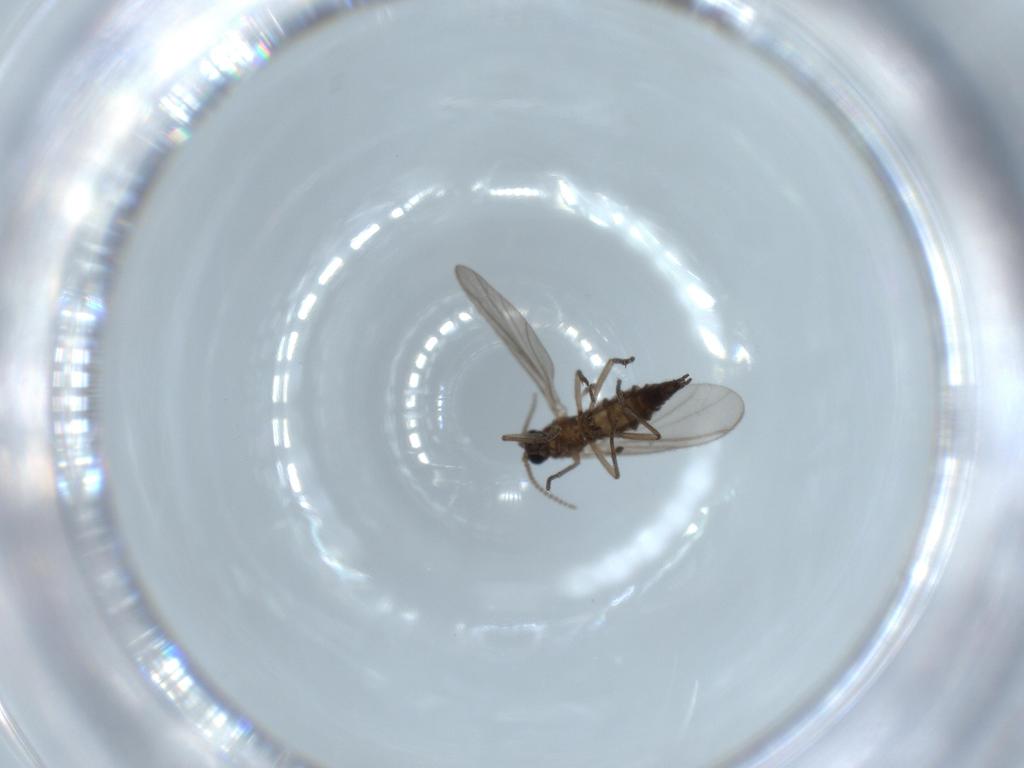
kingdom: Animalia
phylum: Arthropoda
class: Insecta
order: Diptera
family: Sciaridae
